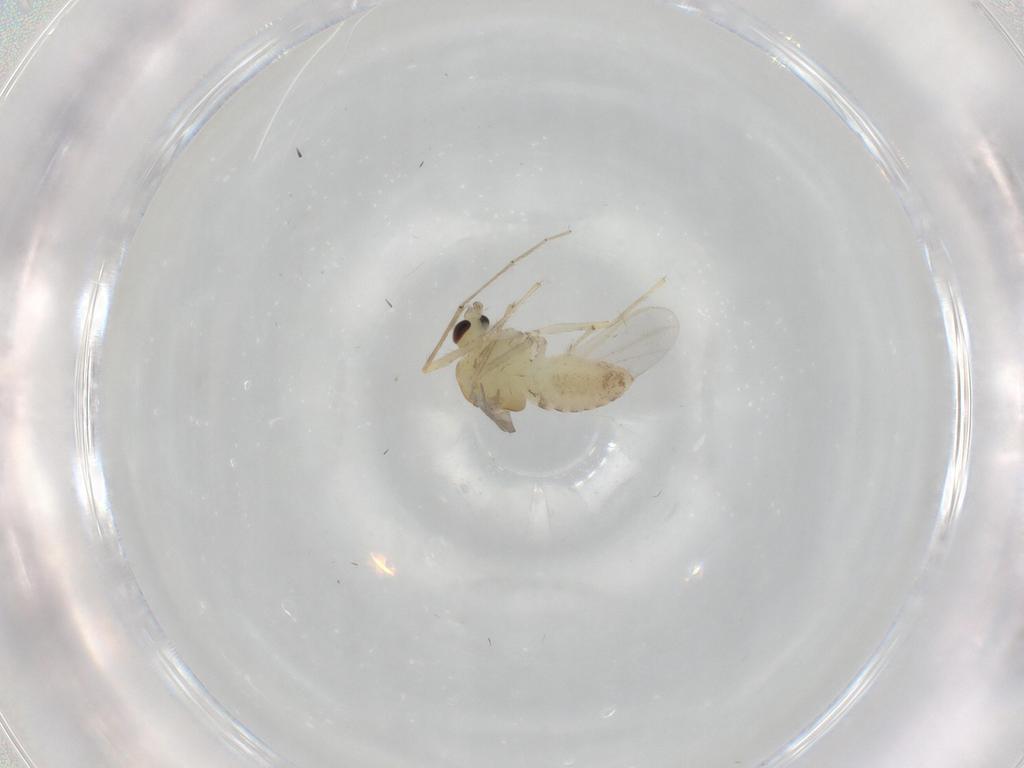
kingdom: Animalia
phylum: Arthropoda
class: Insecta
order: Diptera
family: Chironomidae
